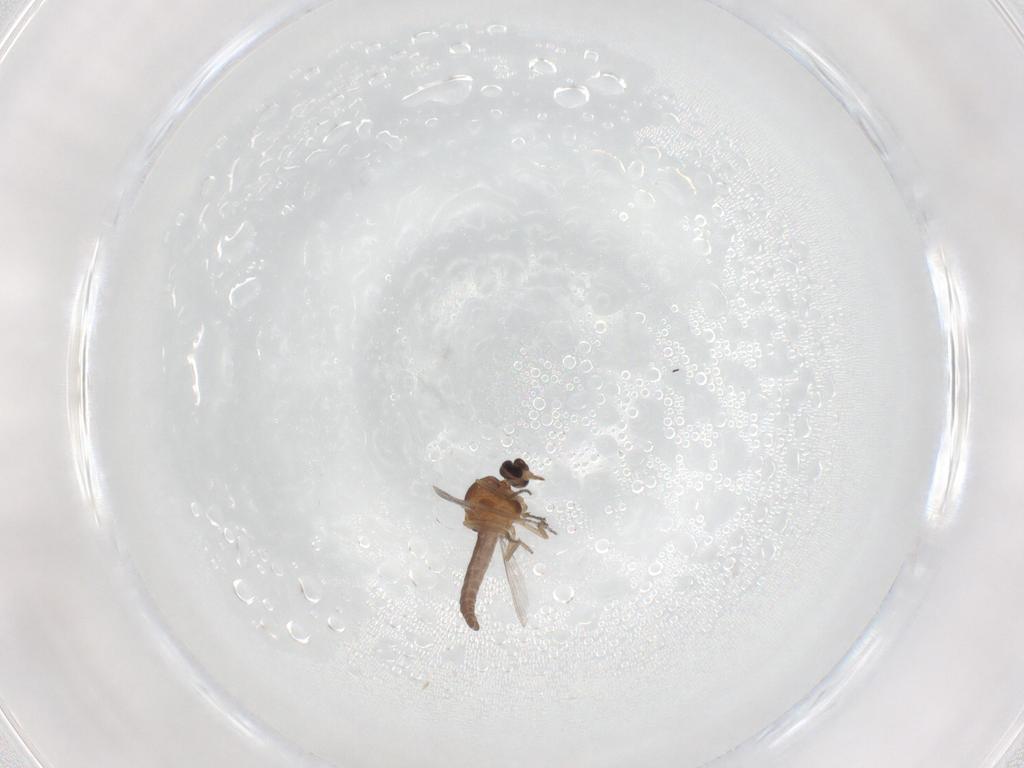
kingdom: Animalia
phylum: Arthropoda
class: Insecta
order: Diptera
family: Ceratopogonidae
